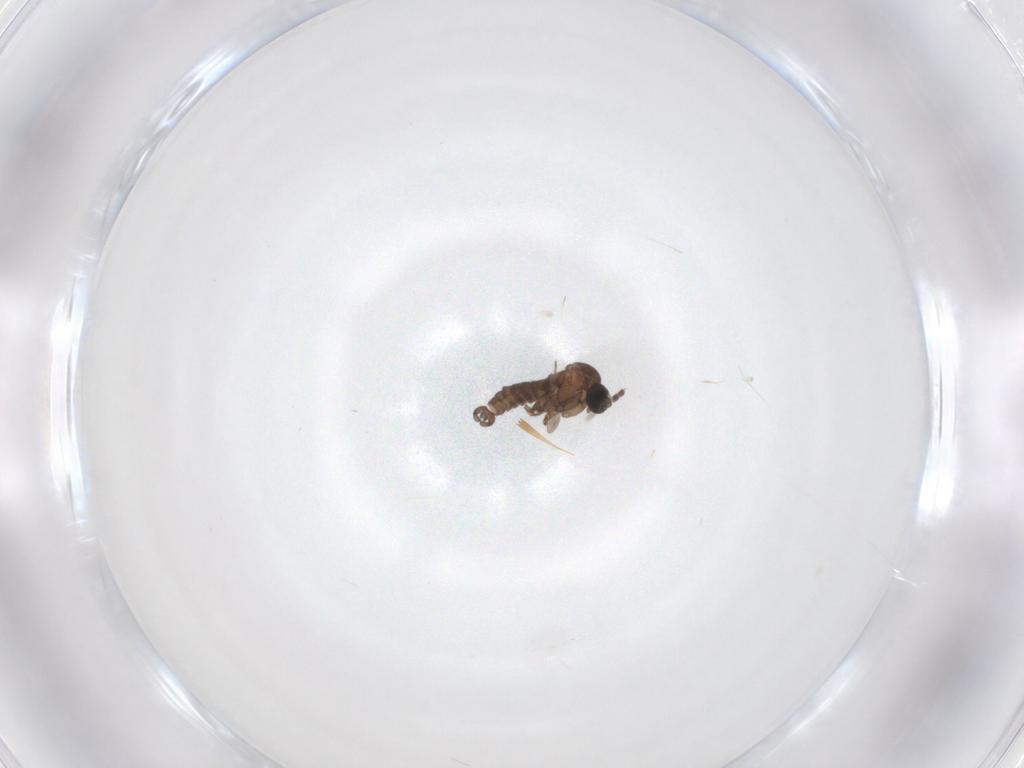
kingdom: Animalia
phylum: Arthropoda
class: Insecta
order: Diptera
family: Sciaridae
